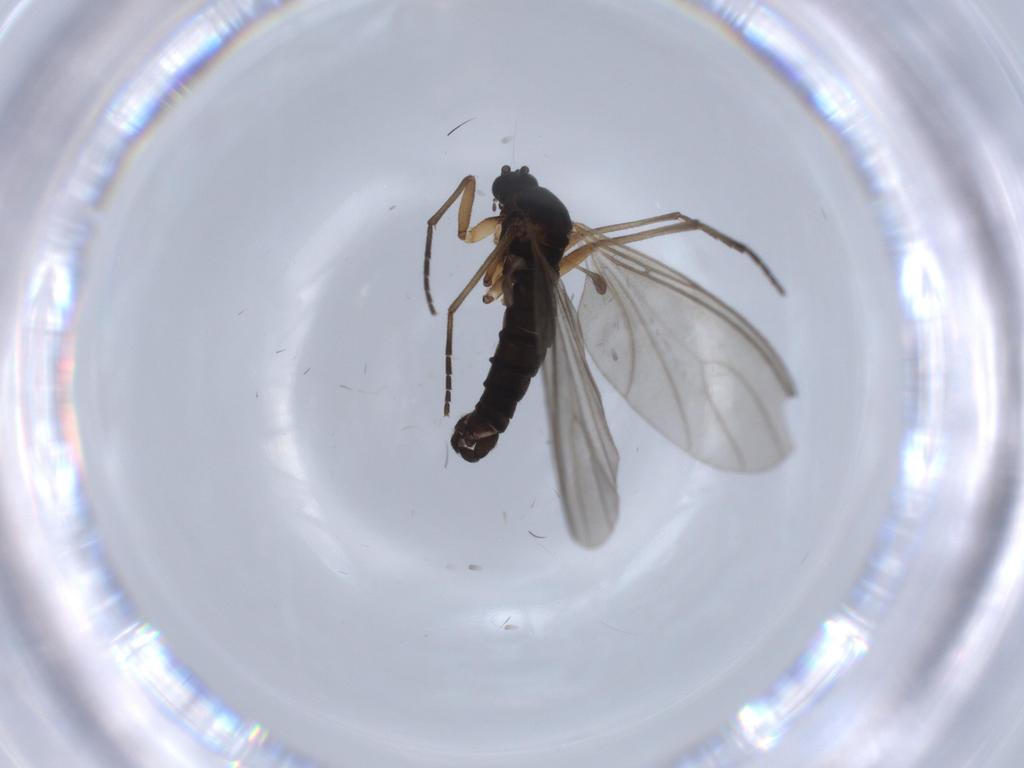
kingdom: Animalia
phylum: Arthropoda
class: Insecta
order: Diptera
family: Sciaridae
